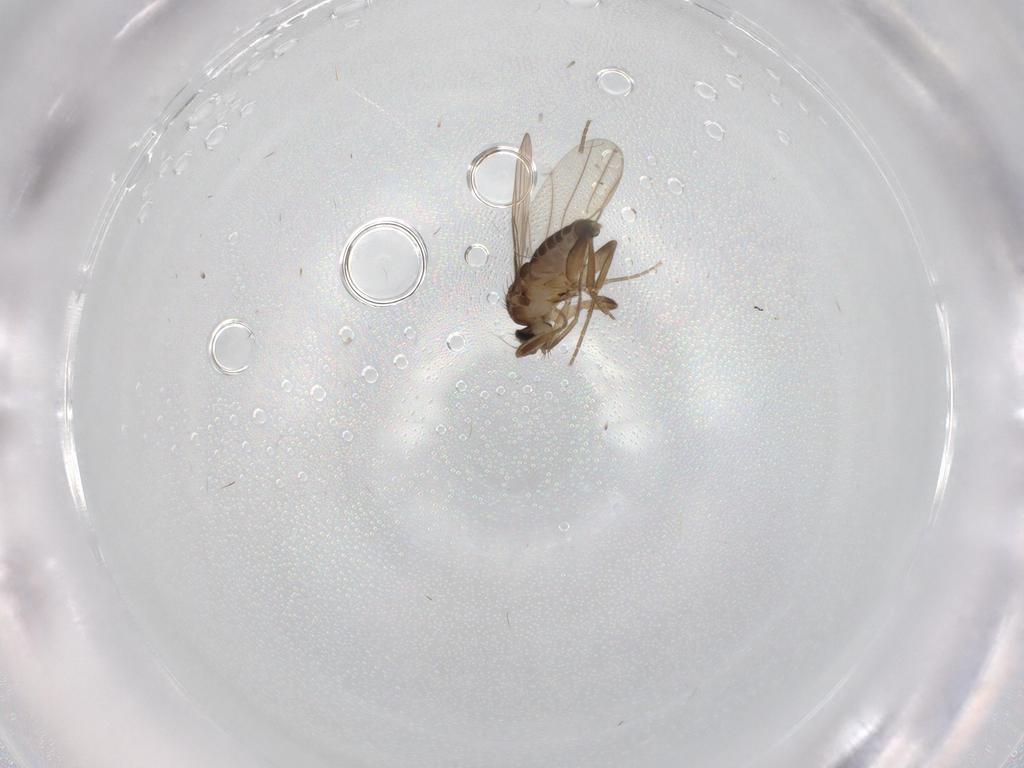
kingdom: Animalia
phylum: Arthropoda
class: Insecta
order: Diptera
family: Phoridae
